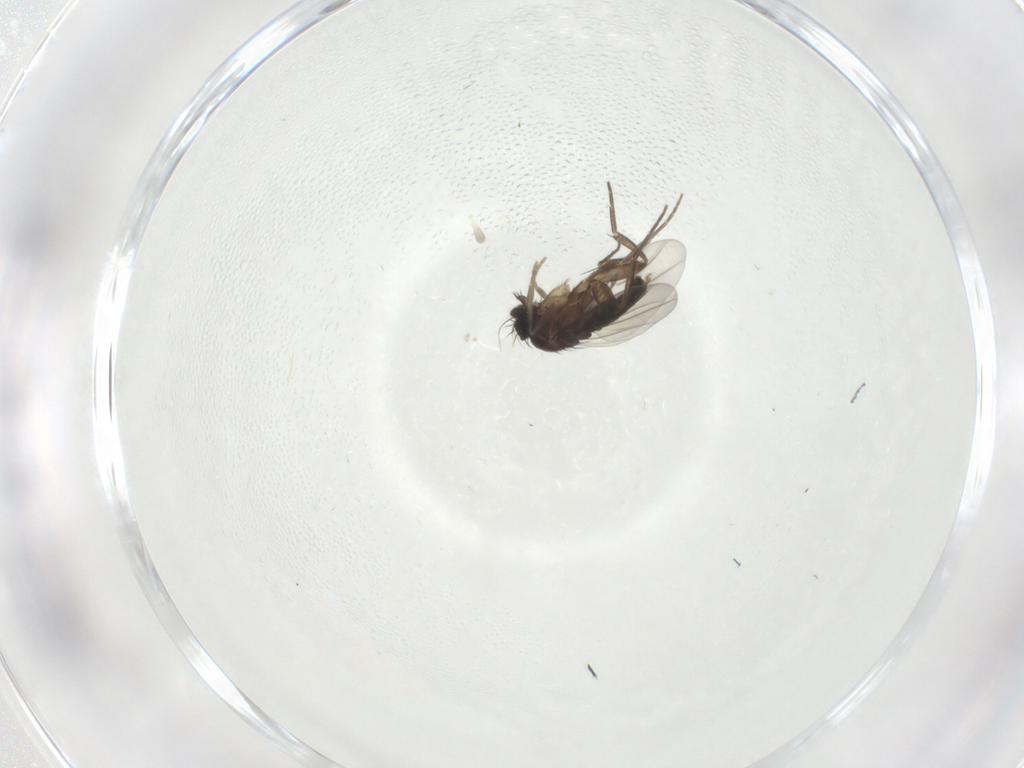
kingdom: Animalia
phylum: Arthropoda
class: Insecta
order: Diptera
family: Phoridae
